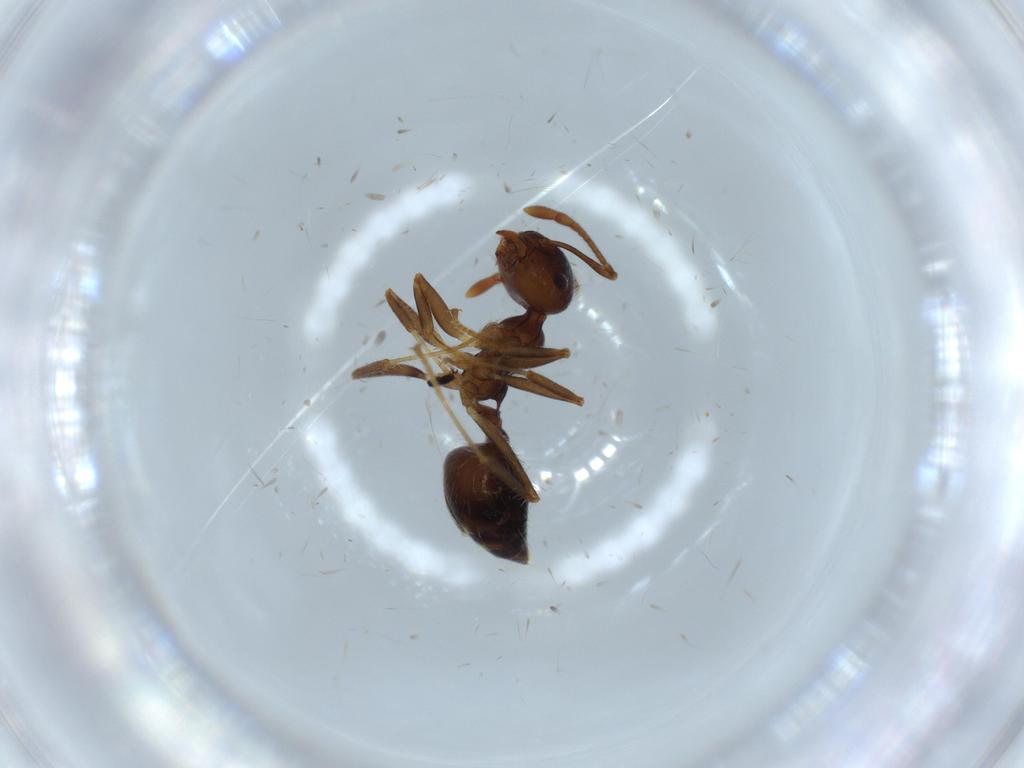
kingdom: Animalia
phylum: Arthropoda
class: Insecta
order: Hymenoptera
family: Formicidae
